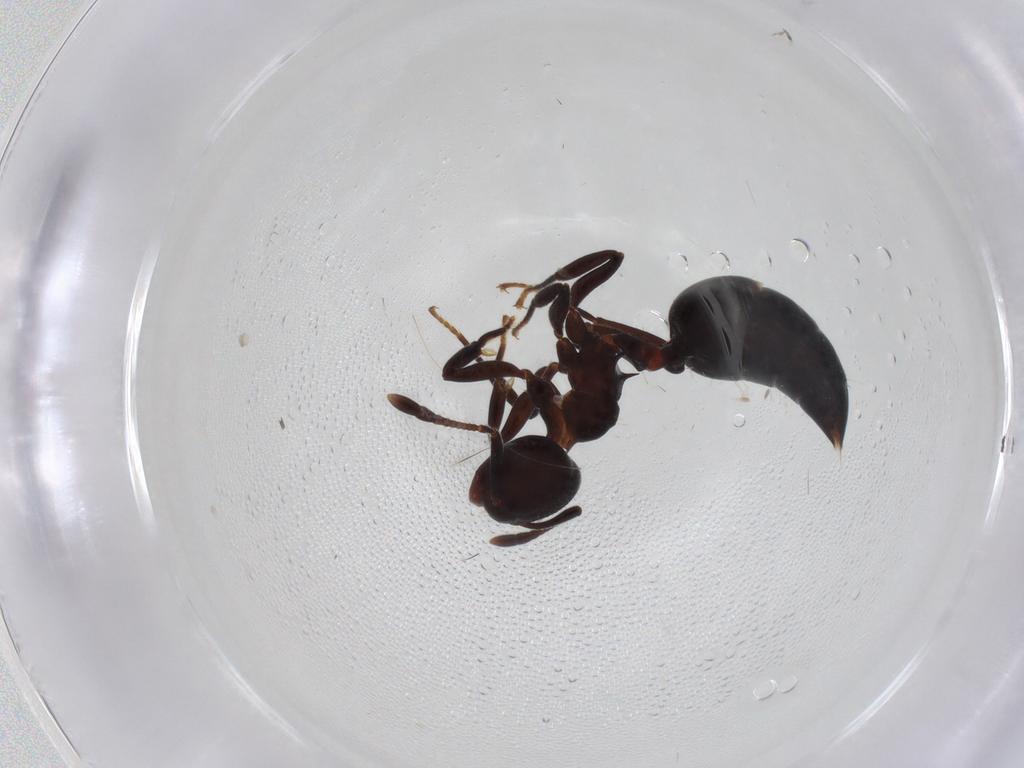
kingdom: Animalia
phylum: Arthropoda
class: Insecta
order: Hymenoptera
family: Formicidae
